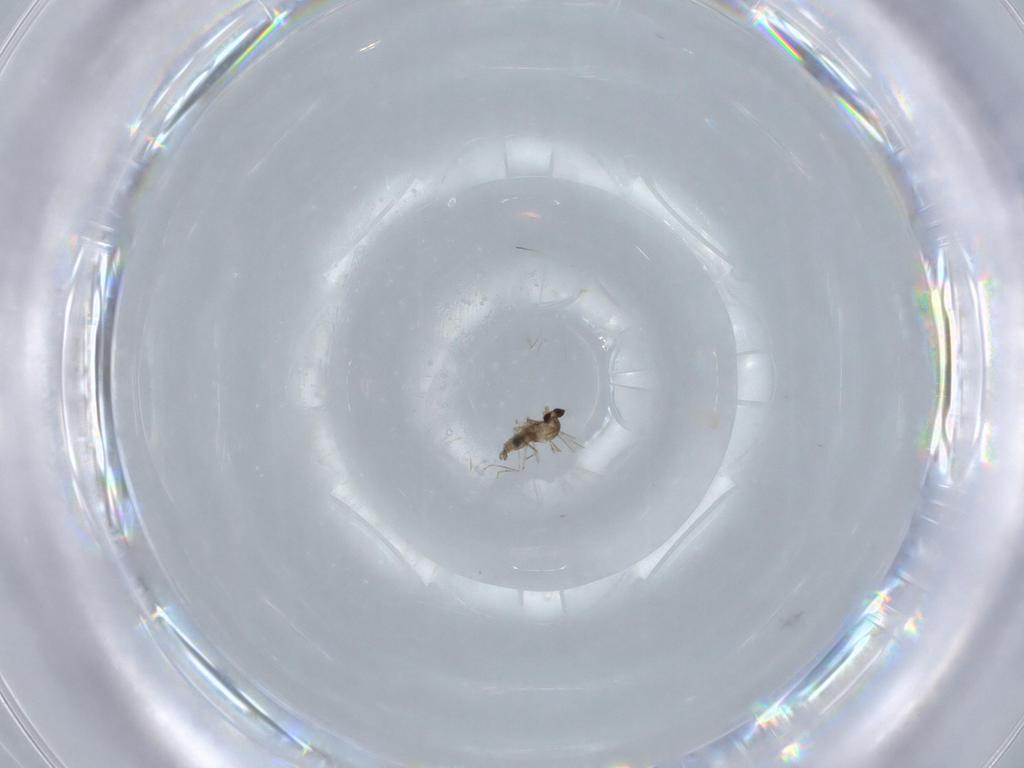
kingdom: Animalia
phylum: Arthropoda
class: Insecta
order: Diptera
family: Cecidomyiidae
